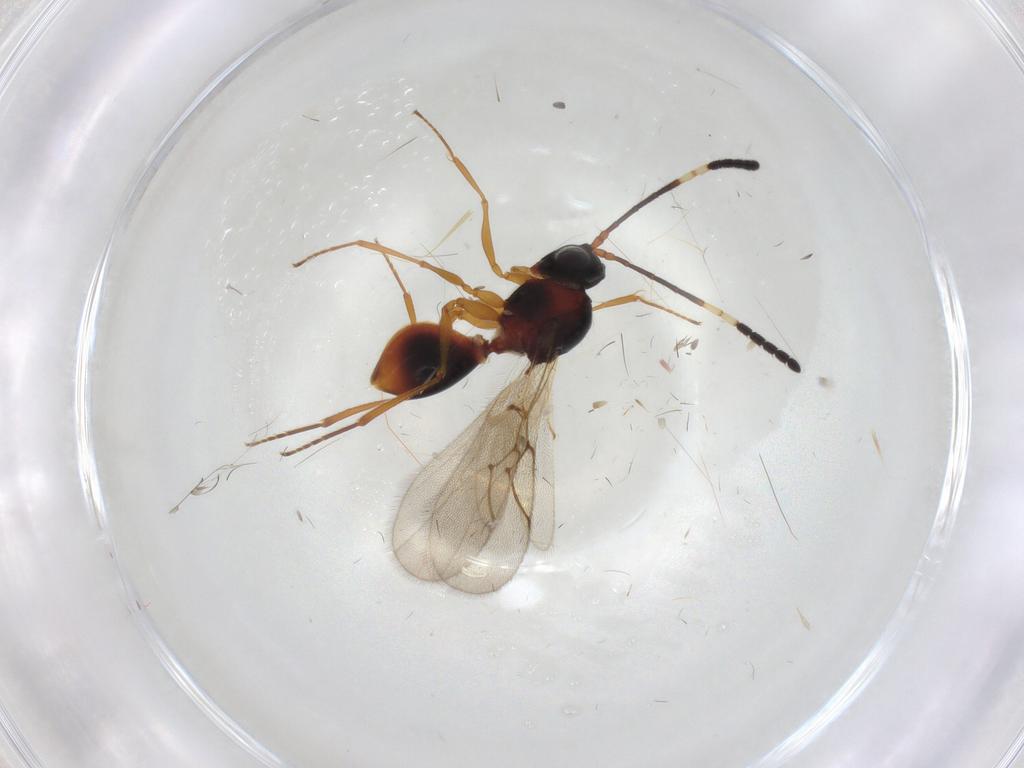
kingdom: Animalia
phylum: Arthropoda
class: Insecta
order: Hymenoptera
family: Figitidae
